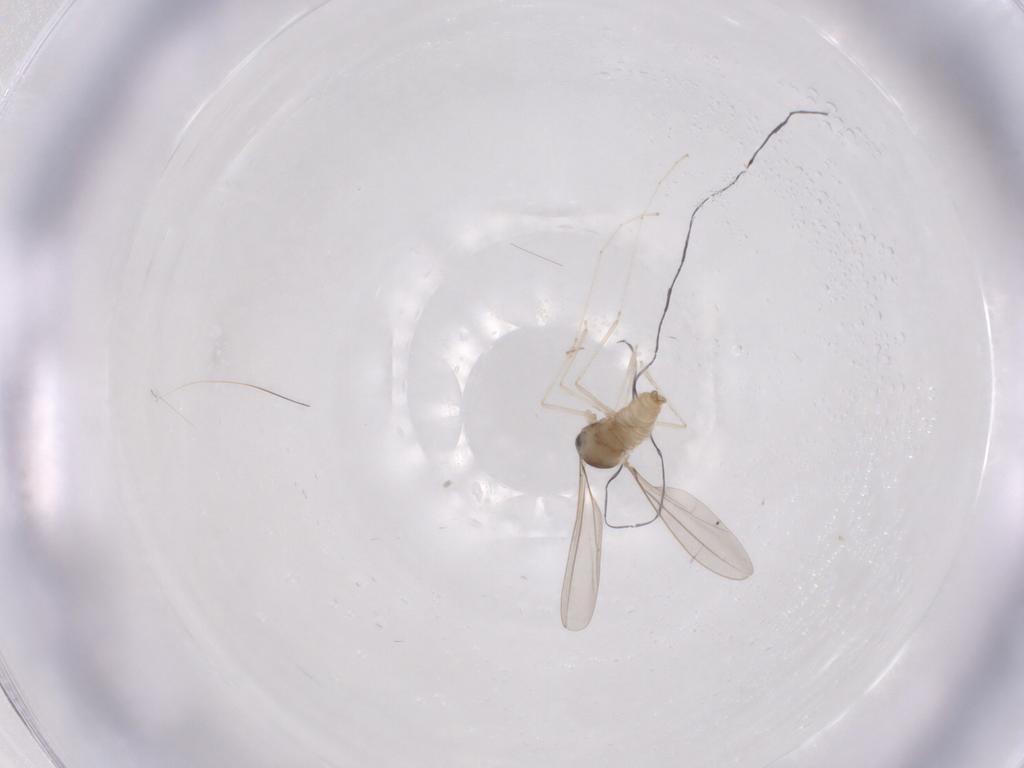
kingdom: Animalia
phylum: Arthropoda
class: Insecta
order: Diptera
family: Cecidomyiidae
